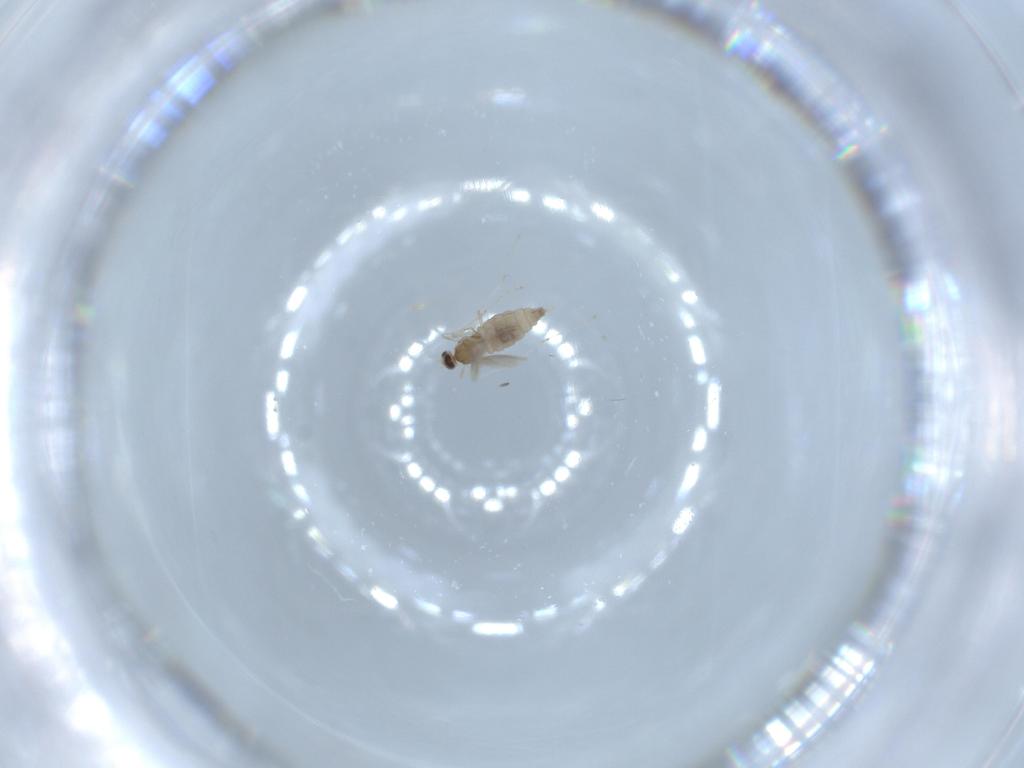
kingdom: Animalia
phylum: Arthropoda
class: Insecta
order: Diptera
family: Cecidomyiidae
